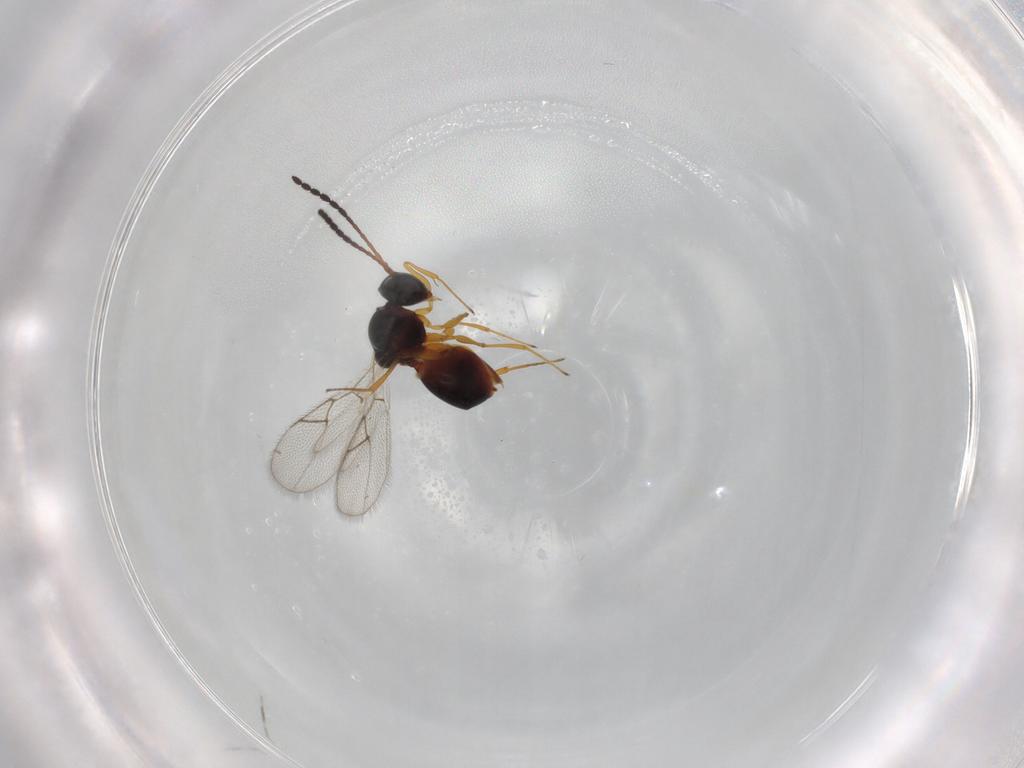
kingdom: Animalia
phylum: Arthropoda
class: Insecta
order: Hymenoptera
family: Figitidae
